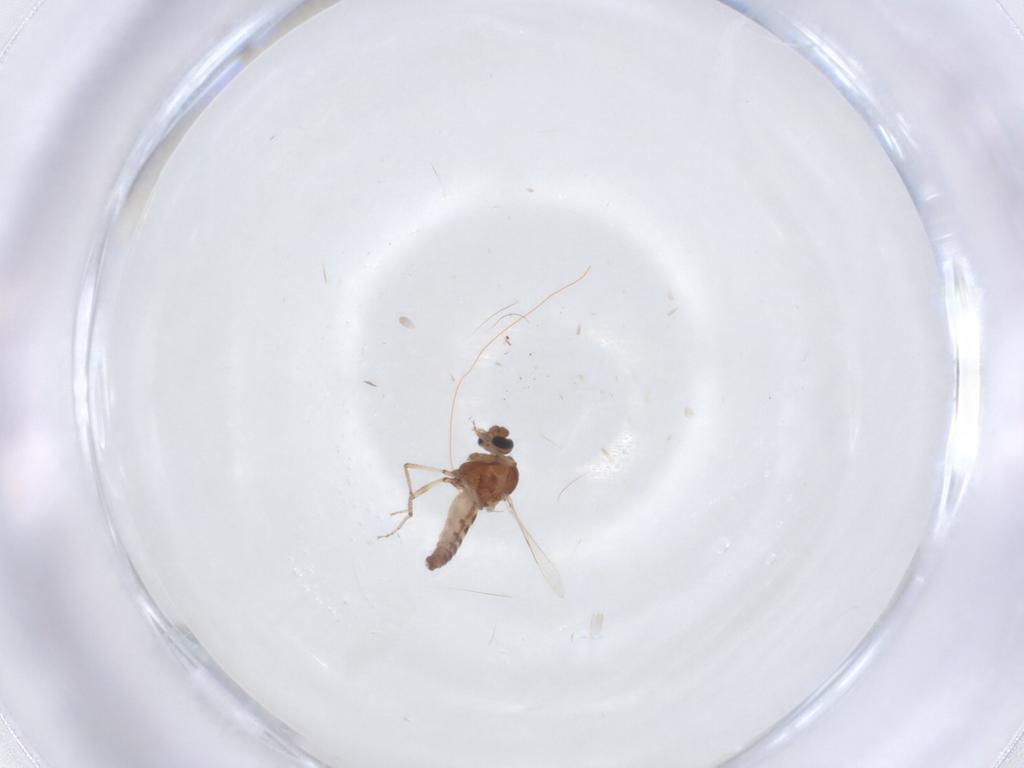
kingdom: Animalia
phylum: Arthropoda
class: Insecta
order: Diptera
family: Ceratopogonidae
